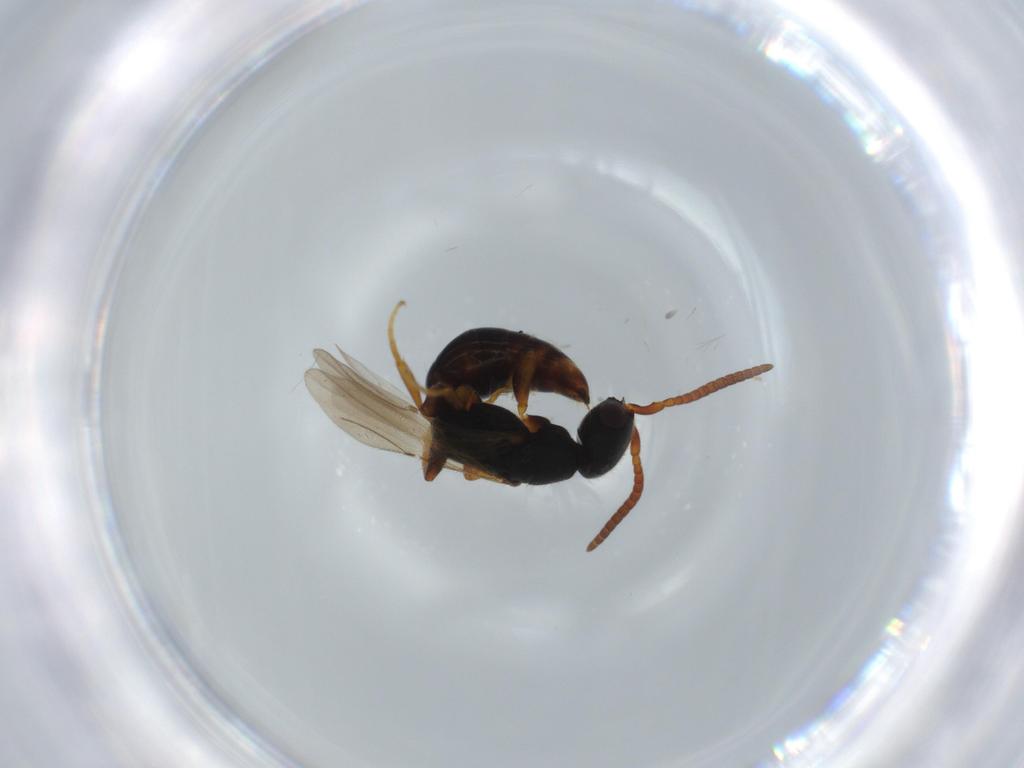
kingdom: Animalia
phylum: Arthropoda
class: Insecta
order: Hymenoptera
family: Bethylidae
